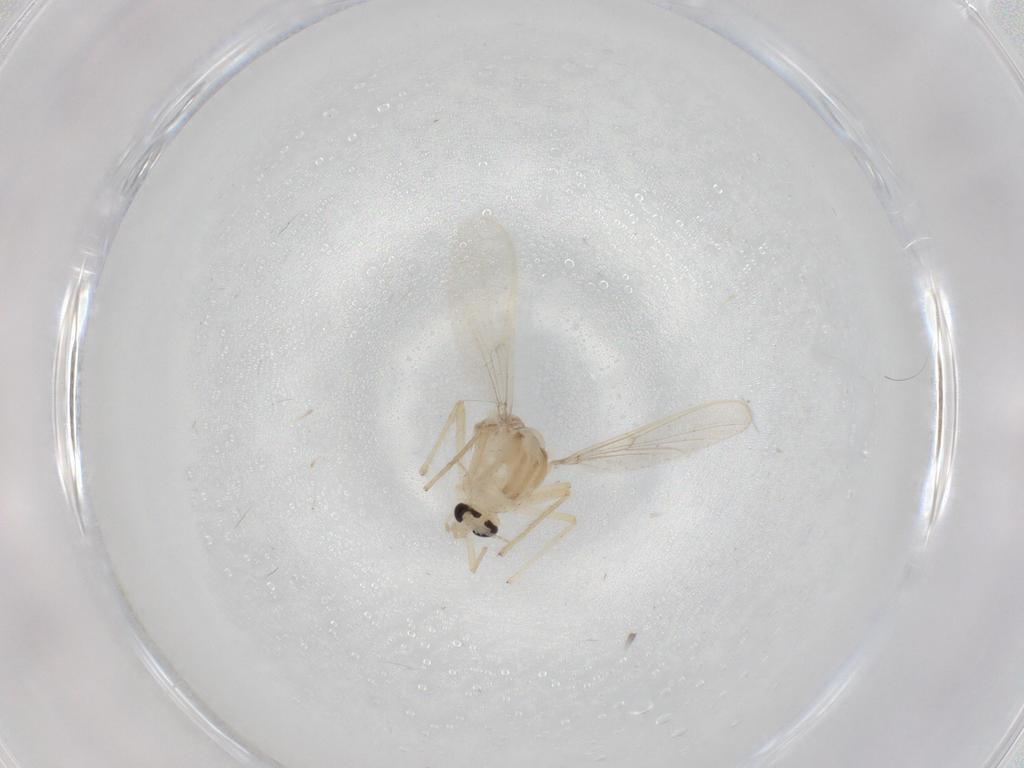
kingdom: Animalia
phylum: Arthropoda
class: Insecta
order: Diptera
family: Chironomidae
